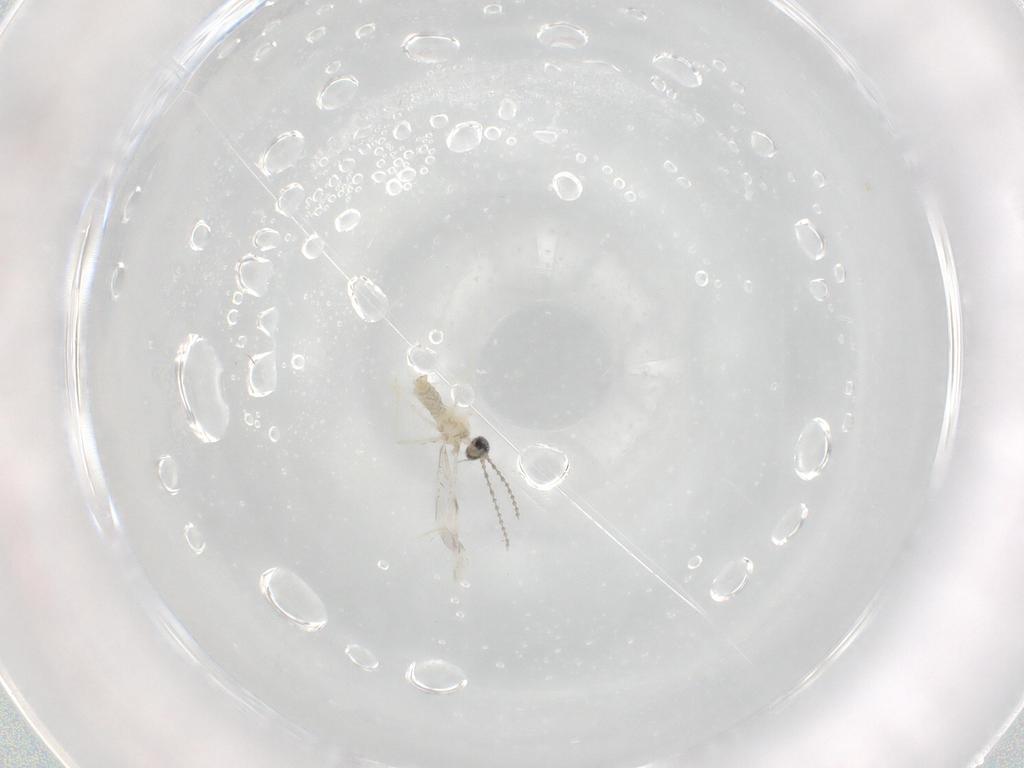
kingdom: Animalia
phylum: Arthropoda
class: Insecta
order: Diptera
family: Cecidomyiidae
